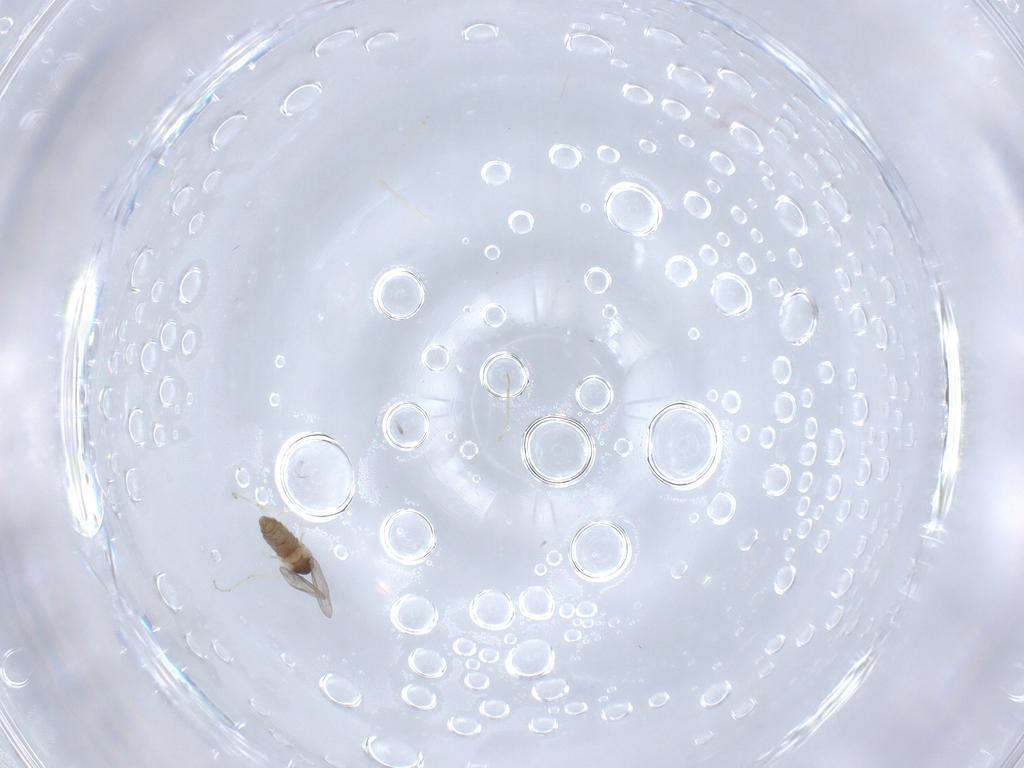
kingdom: Animalia
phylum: Arthropoda
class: Insecta
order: Diptera
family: Cecidomyiidae
